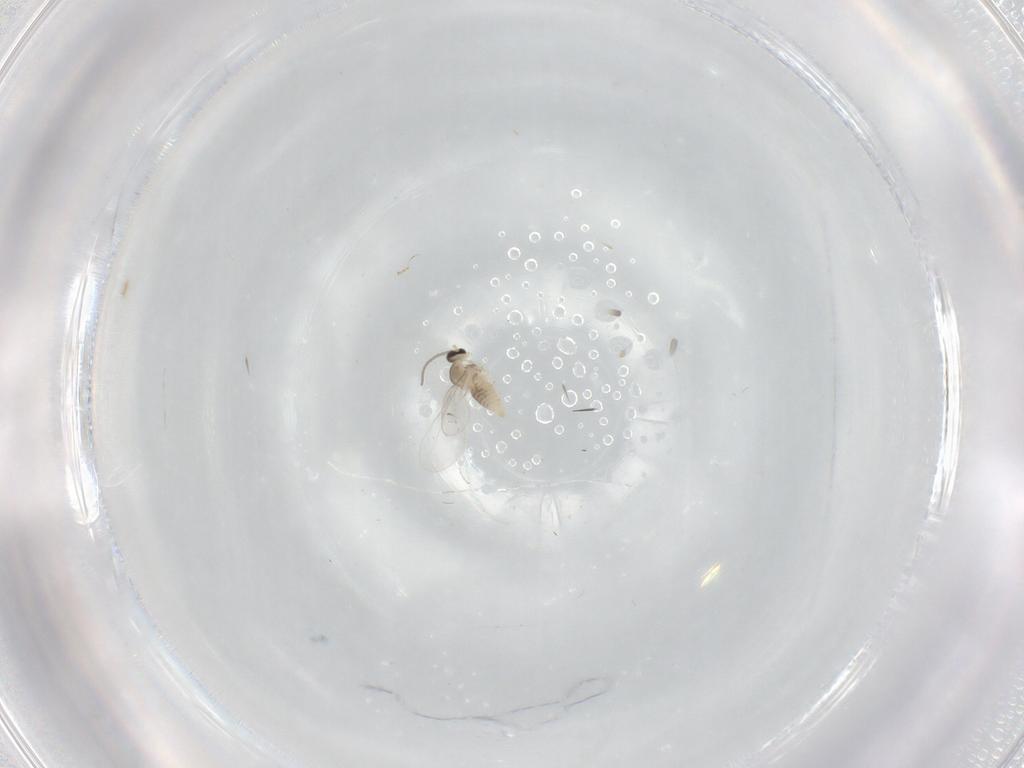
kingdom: Animalia
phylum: Arthropoda
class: Insecta
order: Diptera
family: Cecidomyiidae
